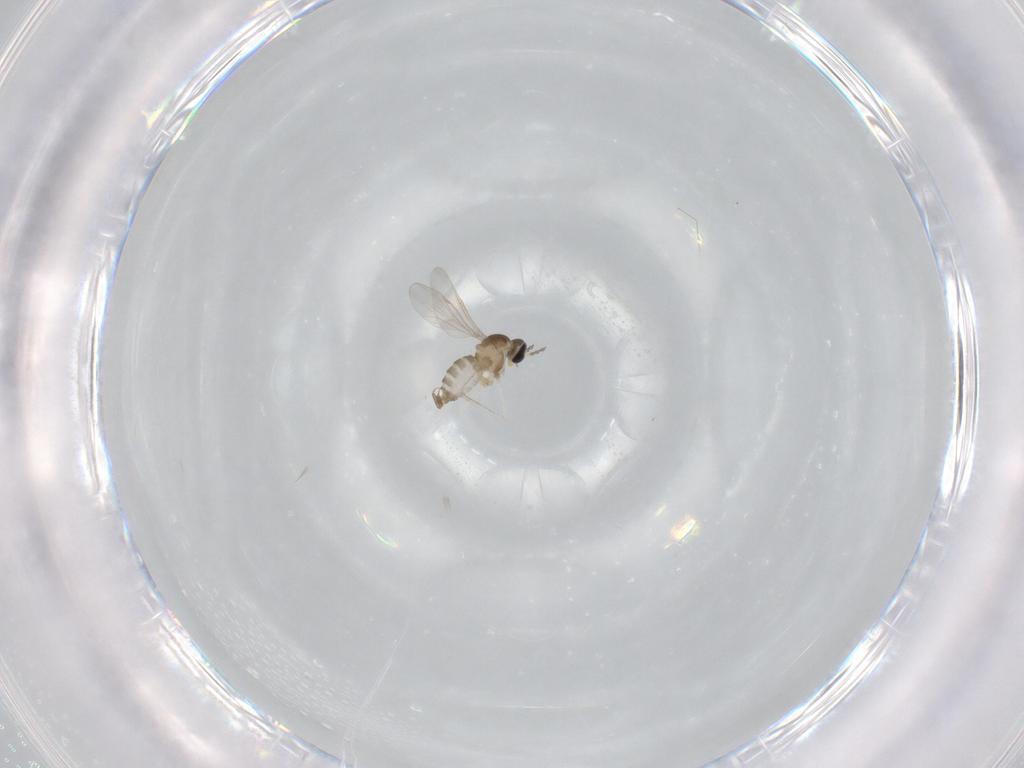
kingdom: Animalia
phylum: Arthropoda
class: Insecta
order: Diptera
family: Cecidomyiidae
